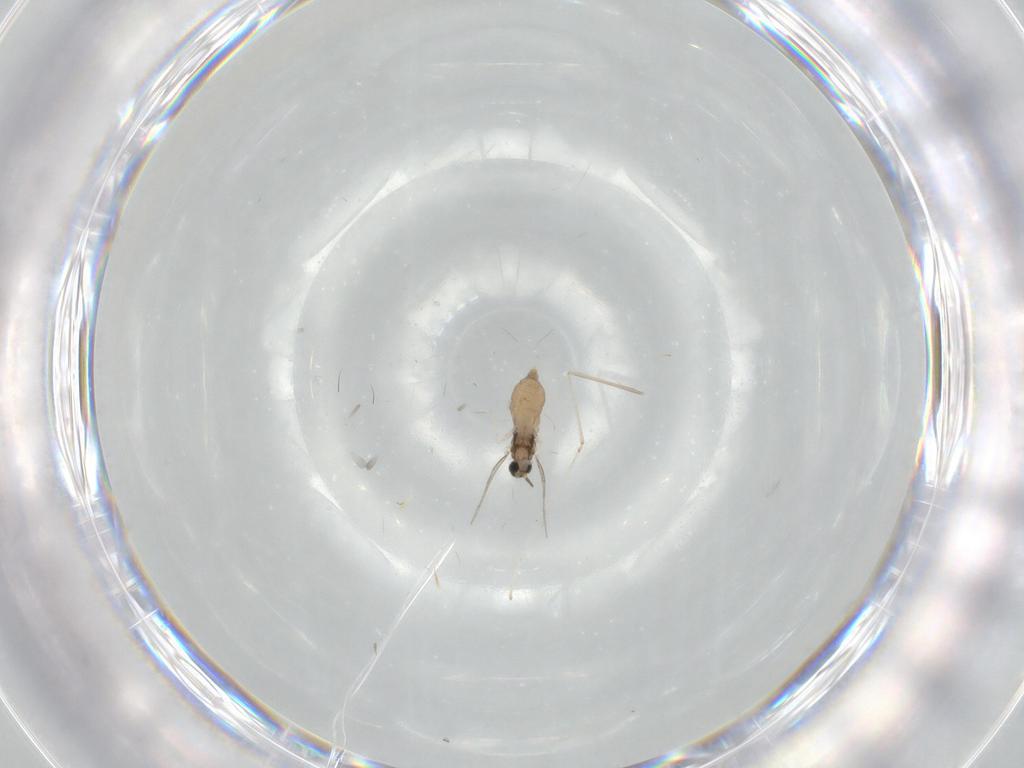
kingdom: Animalia
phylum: Arthropoda
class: Insecta
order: Diptera
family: Cecidomyiidae
